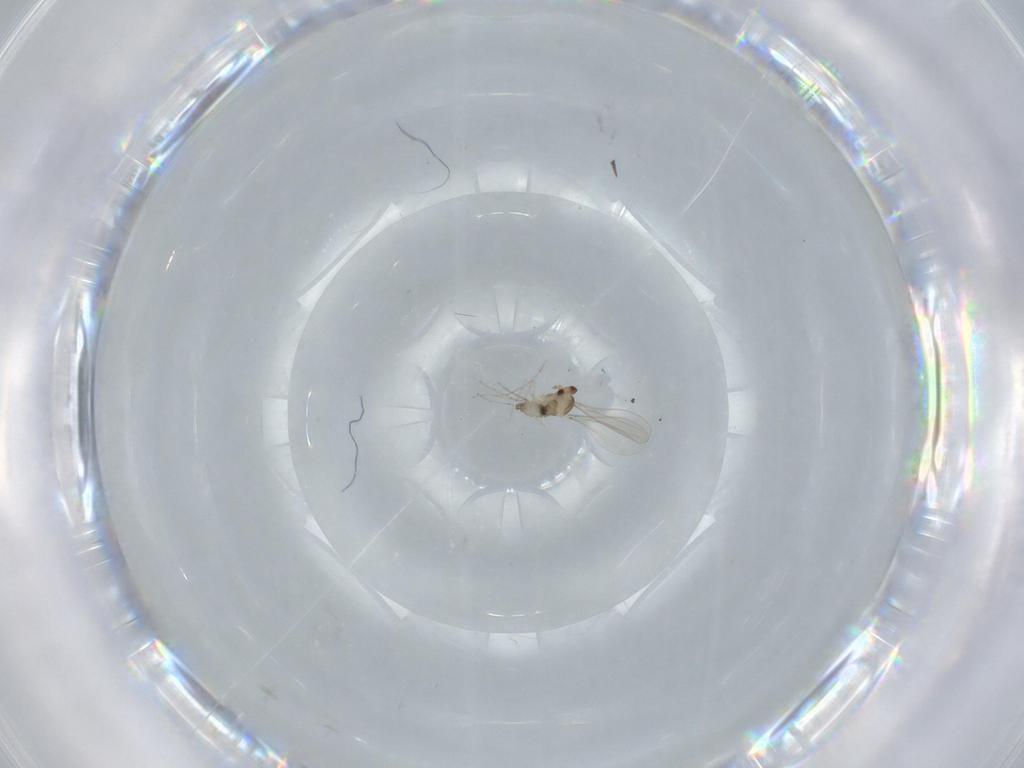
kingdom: Animalia
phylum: Arthropoda
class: Insecta
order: Diptera
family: Cecidomyiidae
